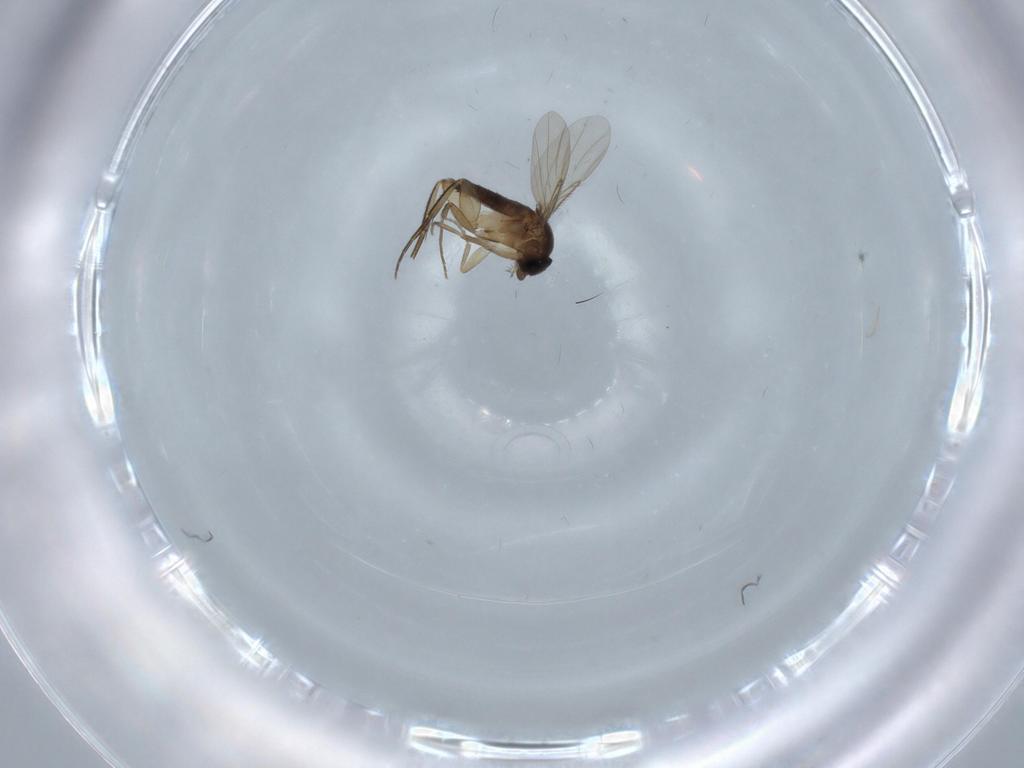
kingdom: Animalia
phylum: Arthropoda
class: Insecta
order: Diptera
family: Phoridae
